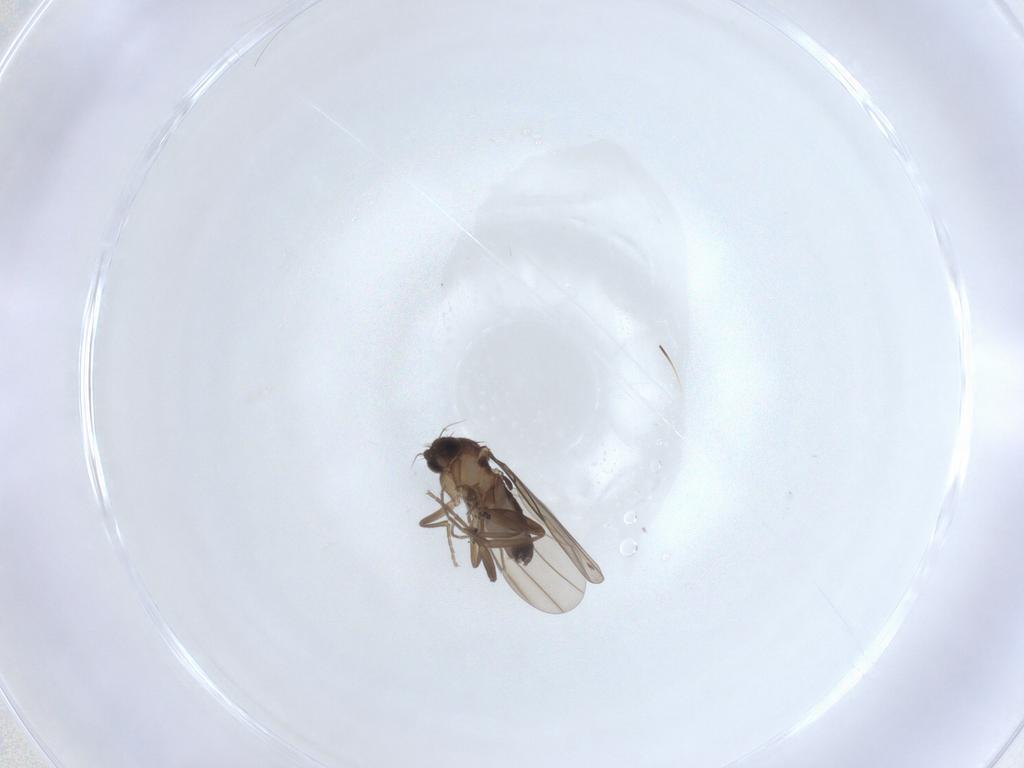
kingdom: Animalia
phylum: Arthropoda
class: Insecta
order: Diptera
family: Phoridae
